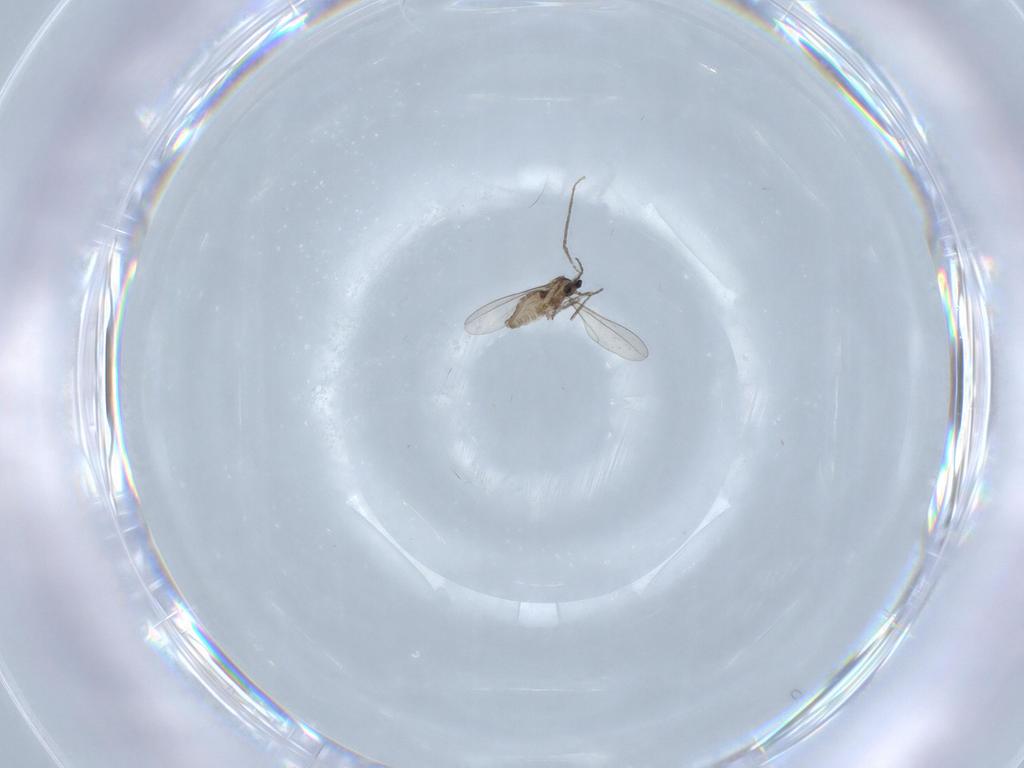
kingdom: Animalia
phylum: Arthropoda
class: Insecta
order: Diptera
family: Cecidomyiidae
